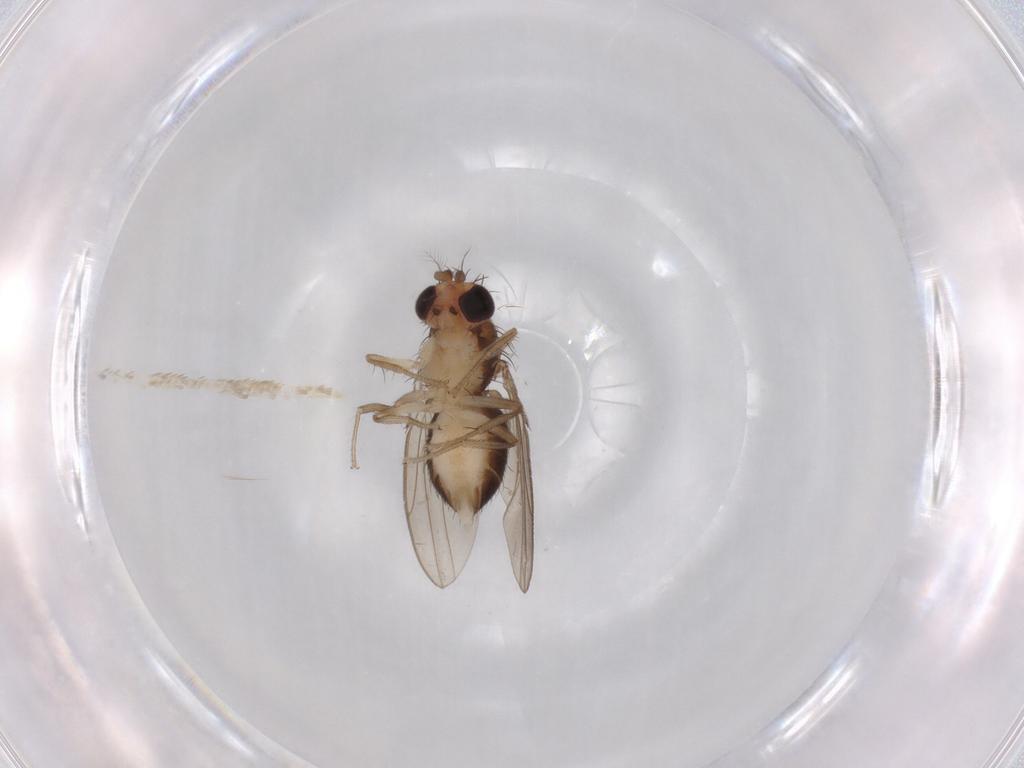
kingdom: Animalia
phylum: Arthropoda
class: Insecta
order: Diptera
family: Drosophilidae
